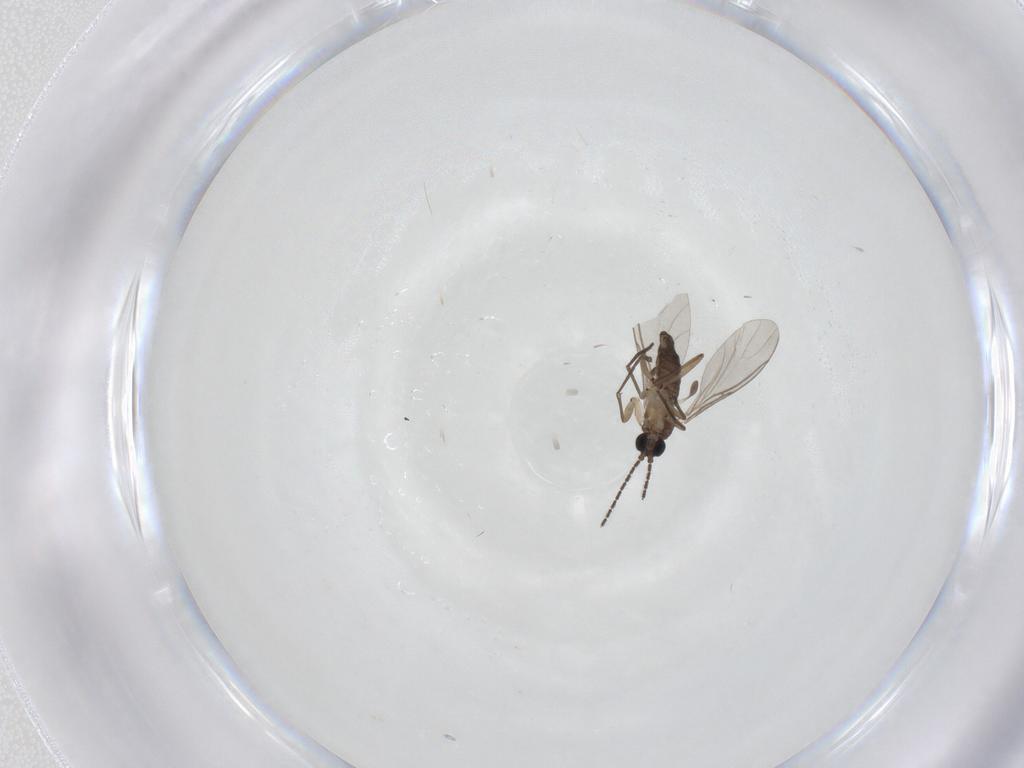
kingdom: Animalia
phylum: Arthropoda
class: Insecta
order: Diptera
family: Sciaridae
